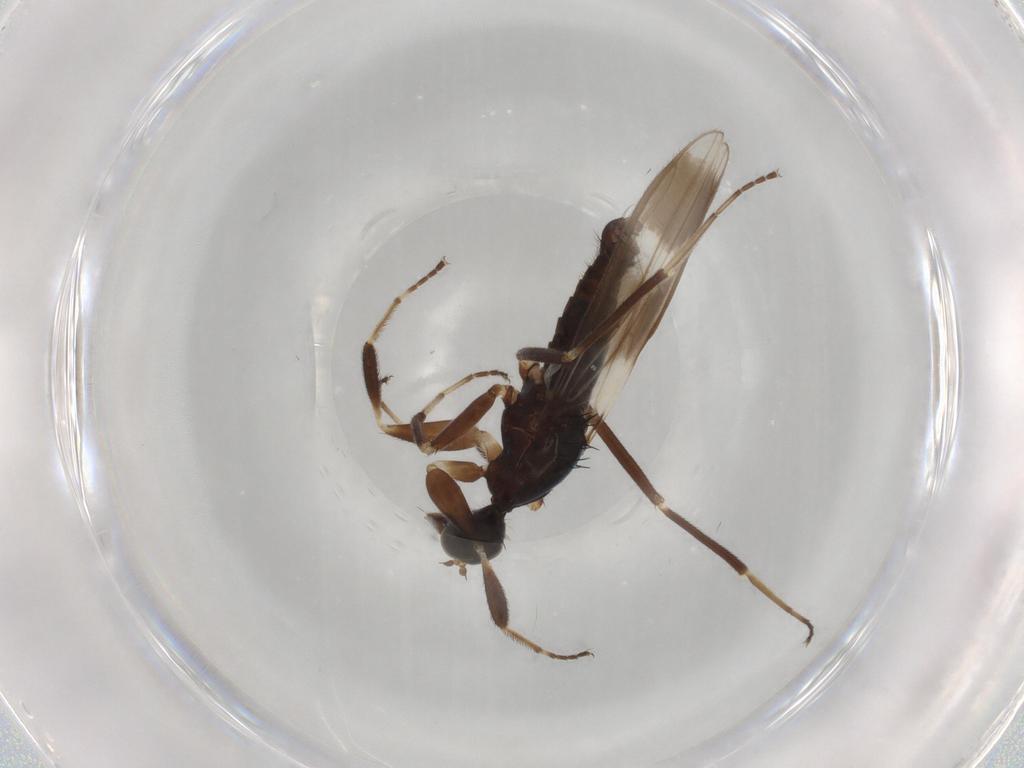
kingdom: Animalia
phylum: Arthropoda
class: Insecta
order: Diptera
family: Hybotidae
